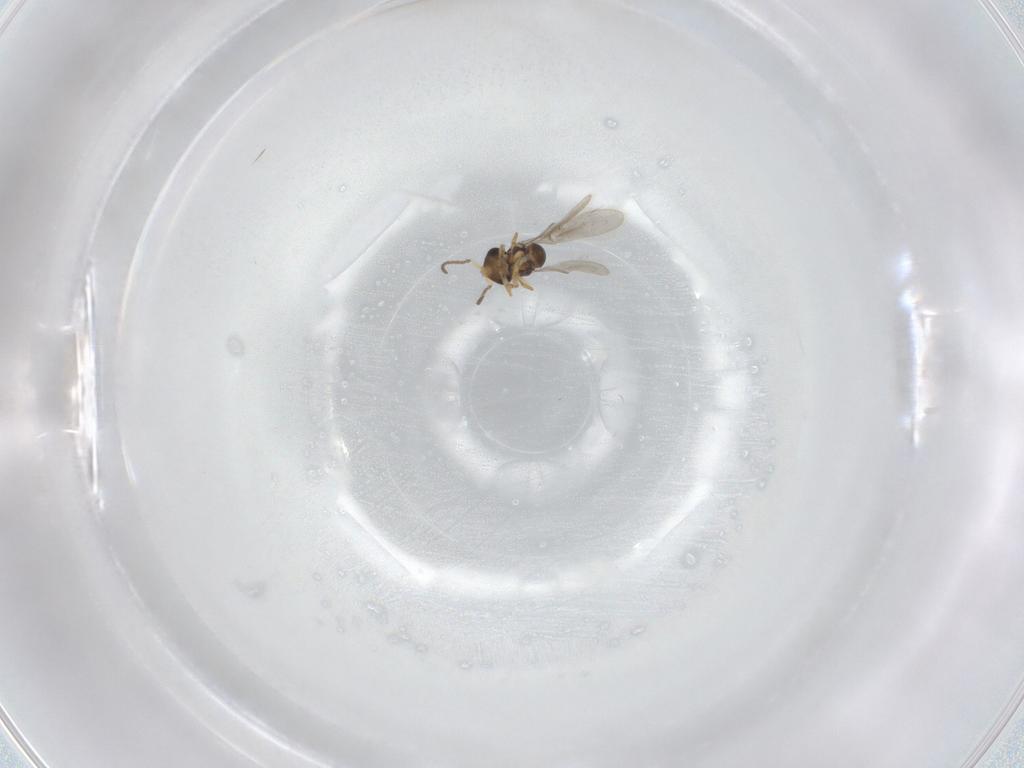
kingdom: Animalia
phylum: Arthropoda
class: Insecta
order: Hymenoptera
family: Scelionidae
